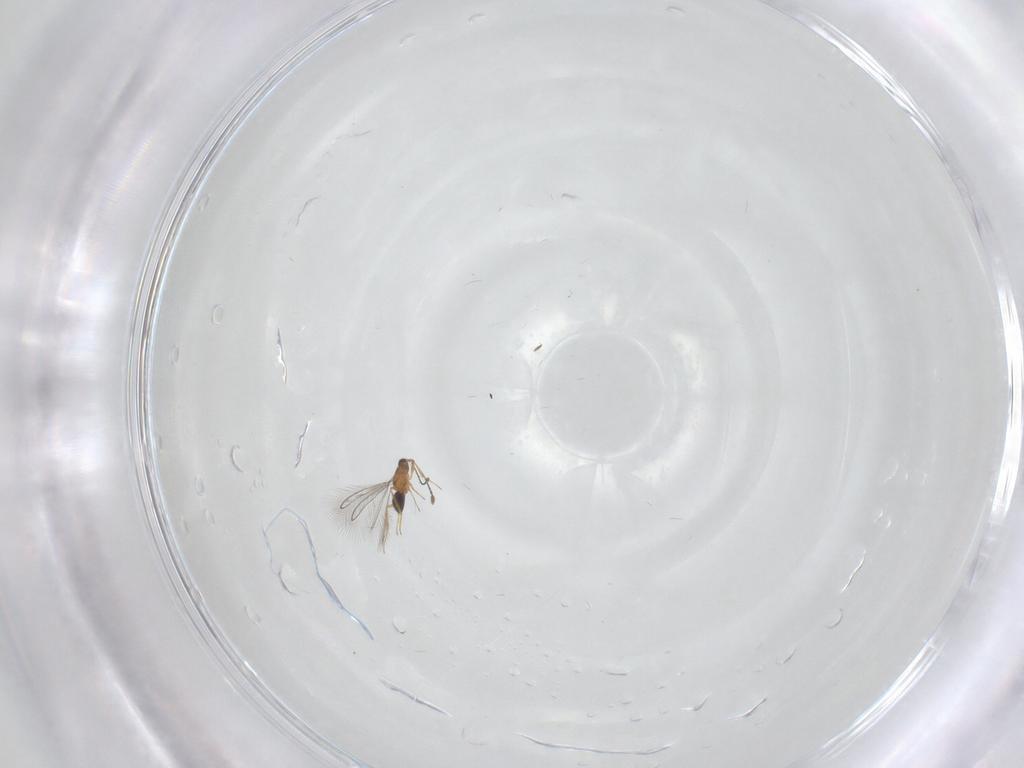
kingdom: Animalia
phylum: Arthropoda
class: Insecta
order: Hymenoptera
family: Mymaridae
